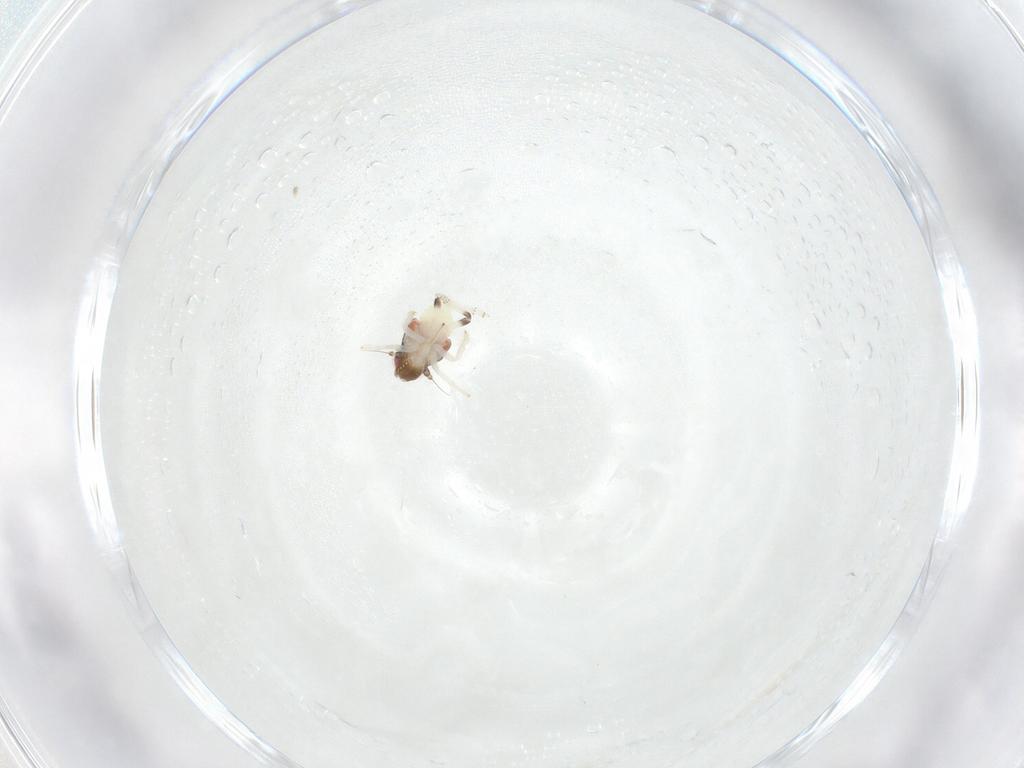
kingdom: Animalia
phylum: Arthropoda
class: Insecta
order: Hemiptera
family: Nogodinidae
